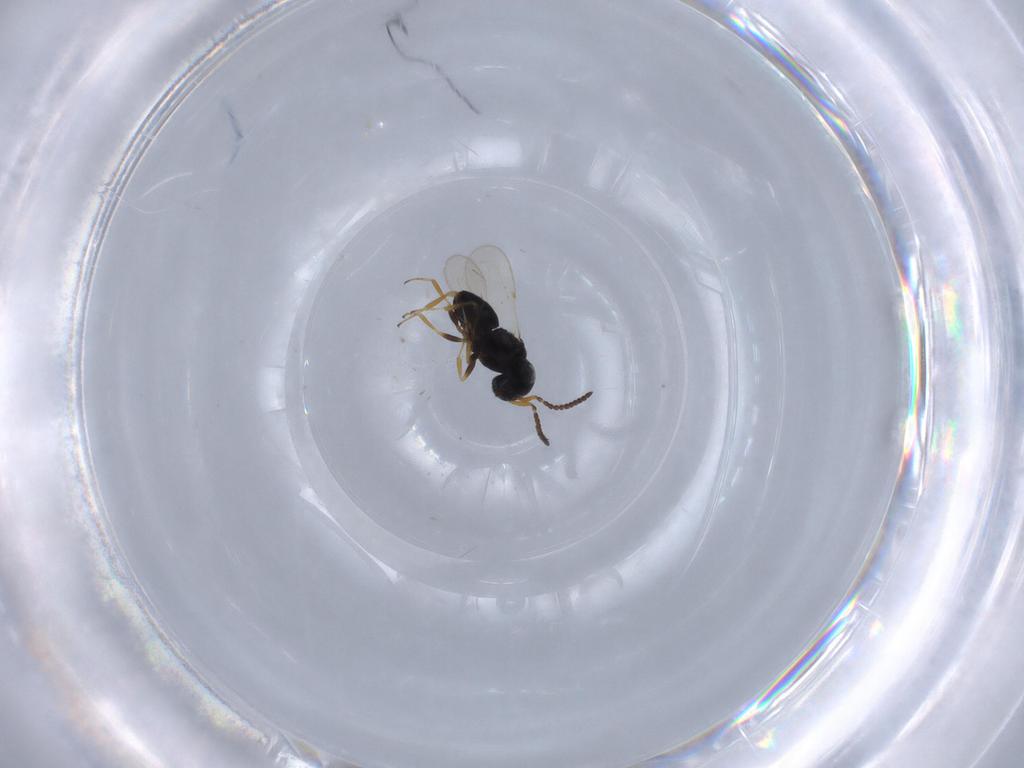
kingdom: Animalia
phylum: Arthropoda
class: Insecta
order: Hymenoptera
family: Scelionidae
